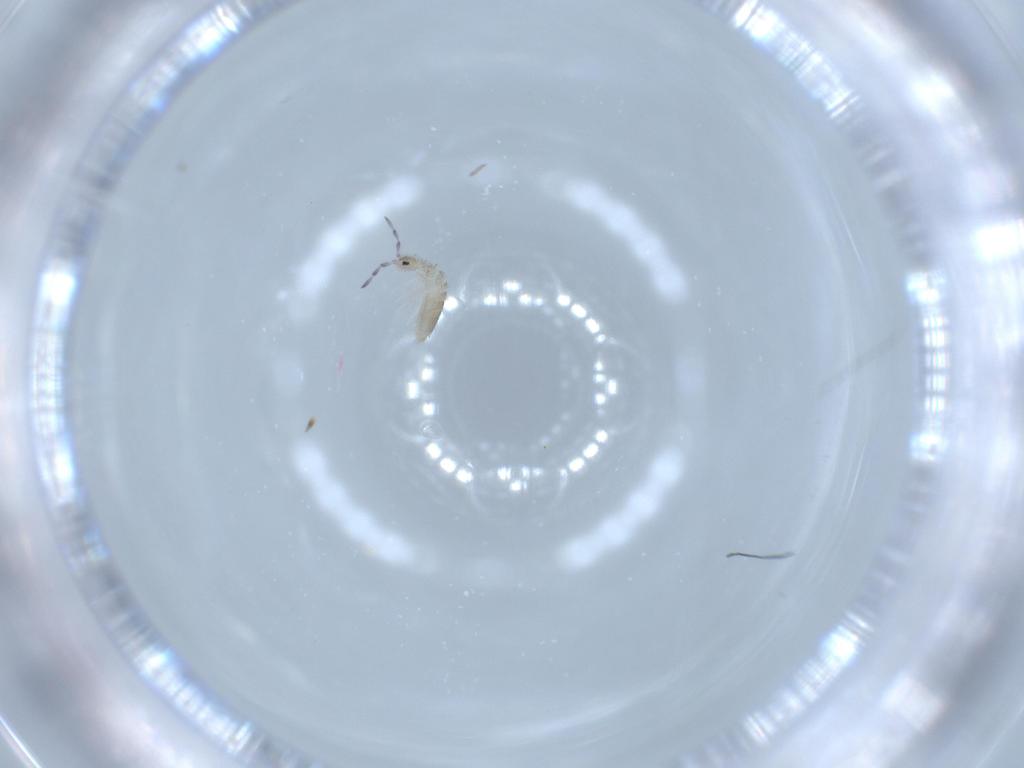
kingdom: Animalia
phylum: Arthropoda
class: Collembola
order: Entomobryomorpha
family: Entomobryidae
